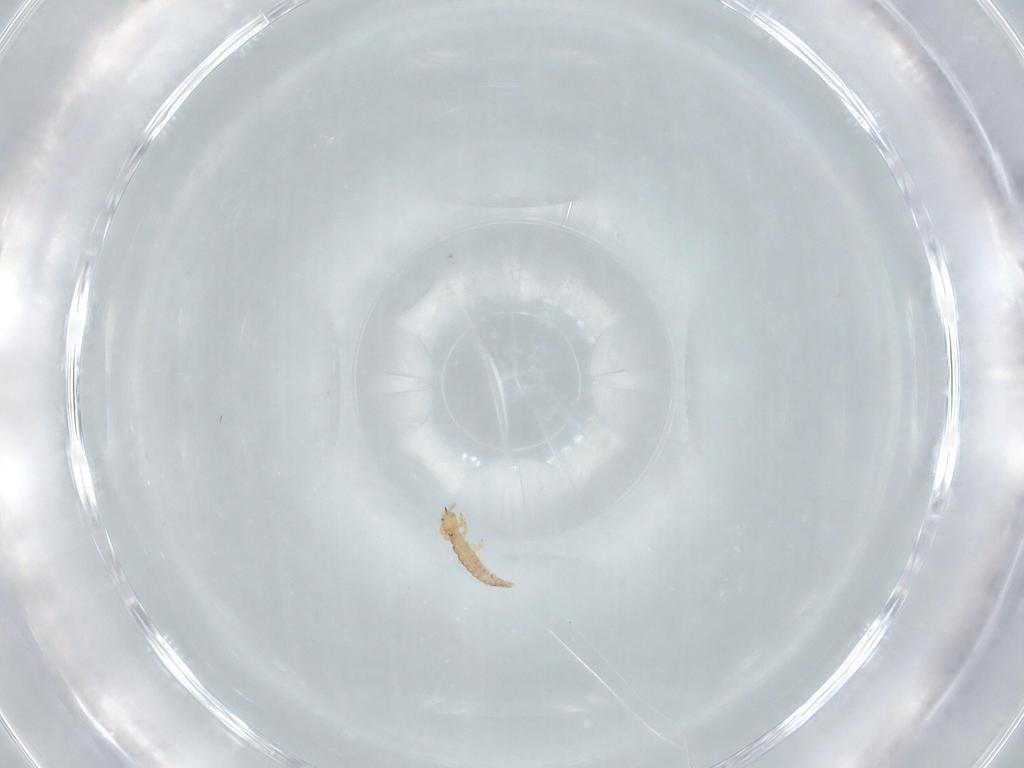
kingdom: Animalia
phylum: Arthropoda
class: Insecta
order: Neuroptera
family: Mantispidae
